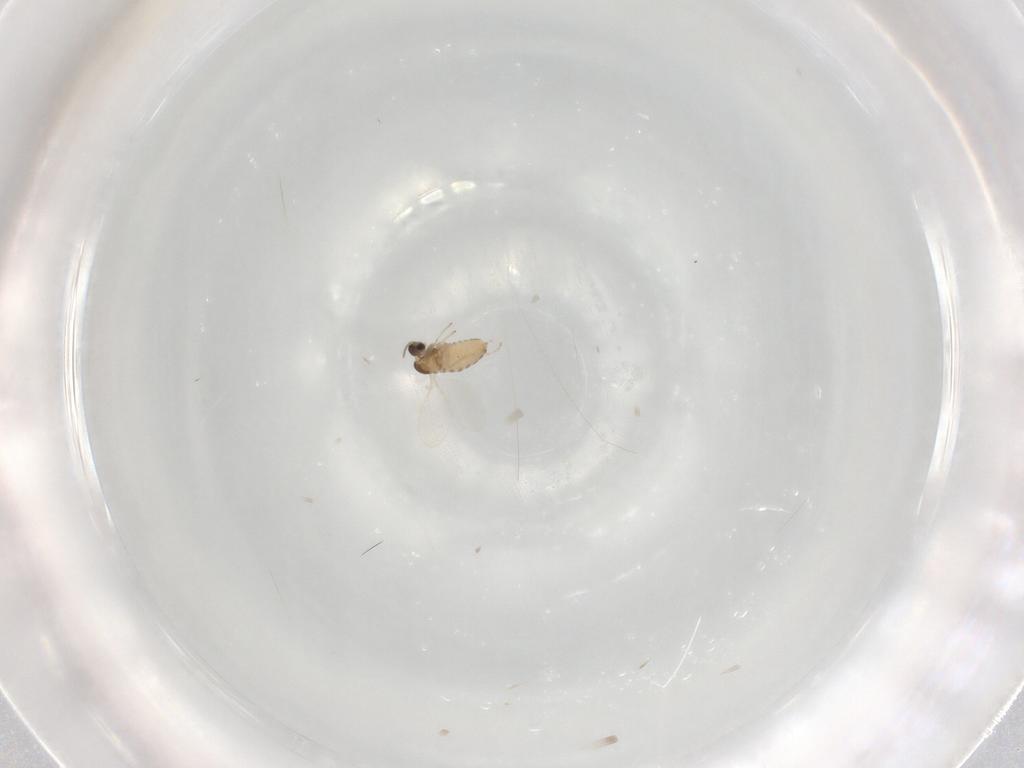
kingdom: Animalia
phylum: Arthropoda
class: Insecta
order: Diptera
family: Cecidomyiidae
